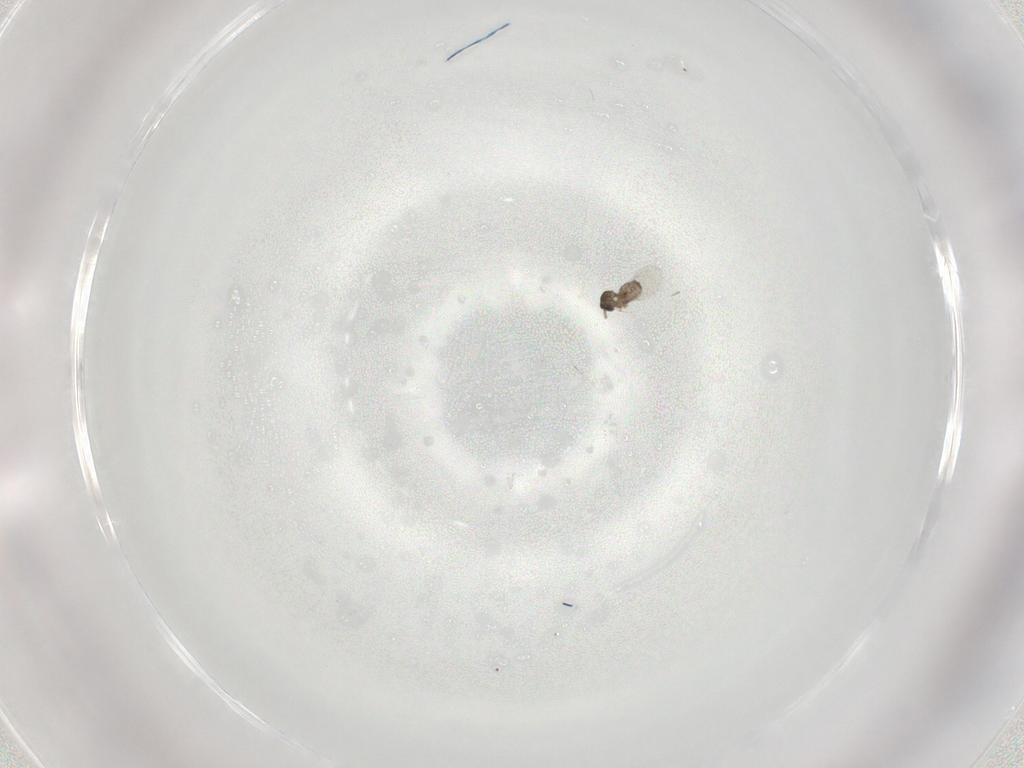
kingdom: Animalia
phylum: Arthropoda
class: Insecta
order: Diptera
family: Cecidomyiidae
